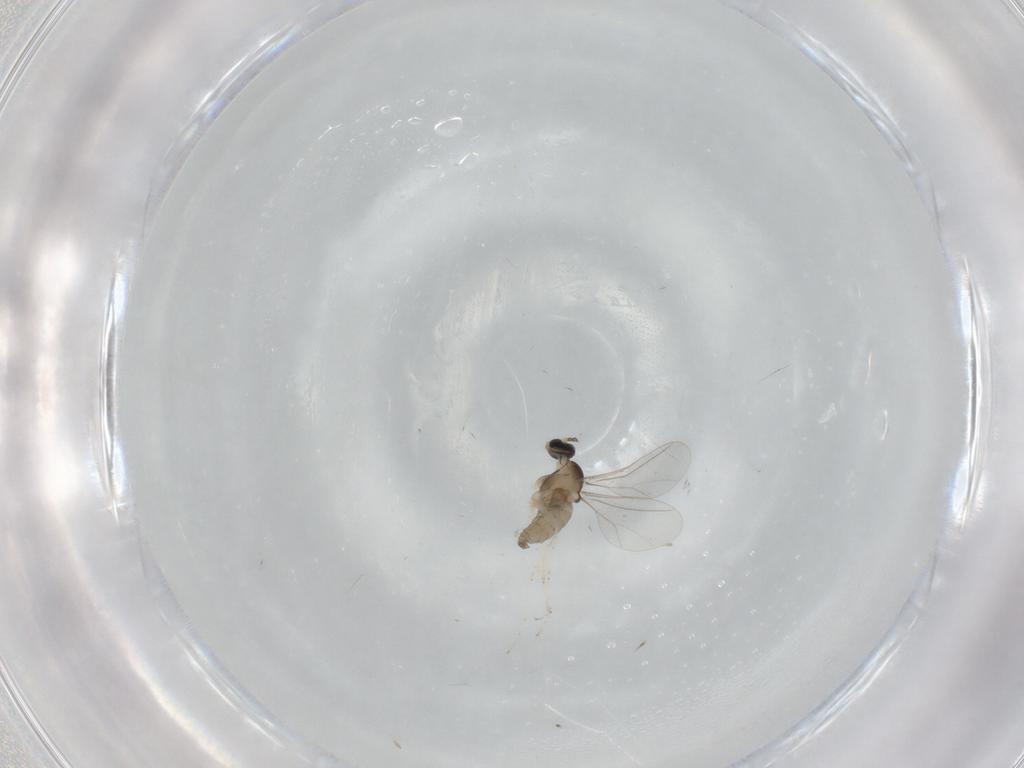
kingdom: Animalia
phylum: Arthropoda
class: Insecta
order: Diptera
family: Cecidomyiidae
